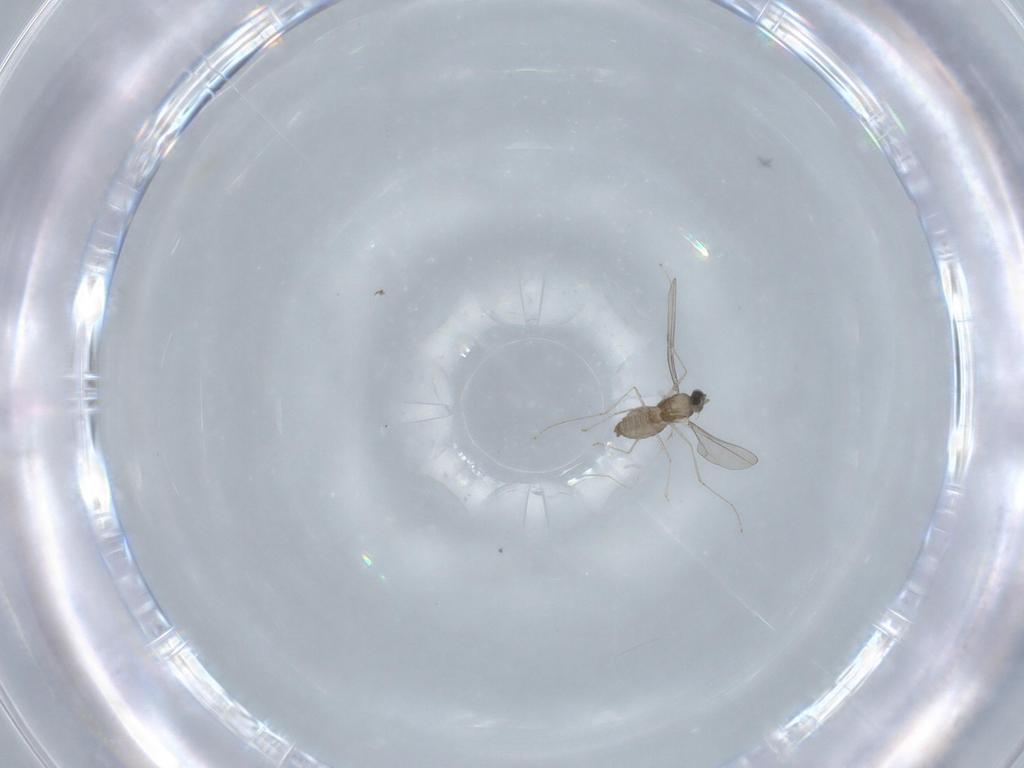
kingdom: Animalia
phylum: Arthropoda
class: Insecta
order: Diptera
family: Cecidomyiidae
